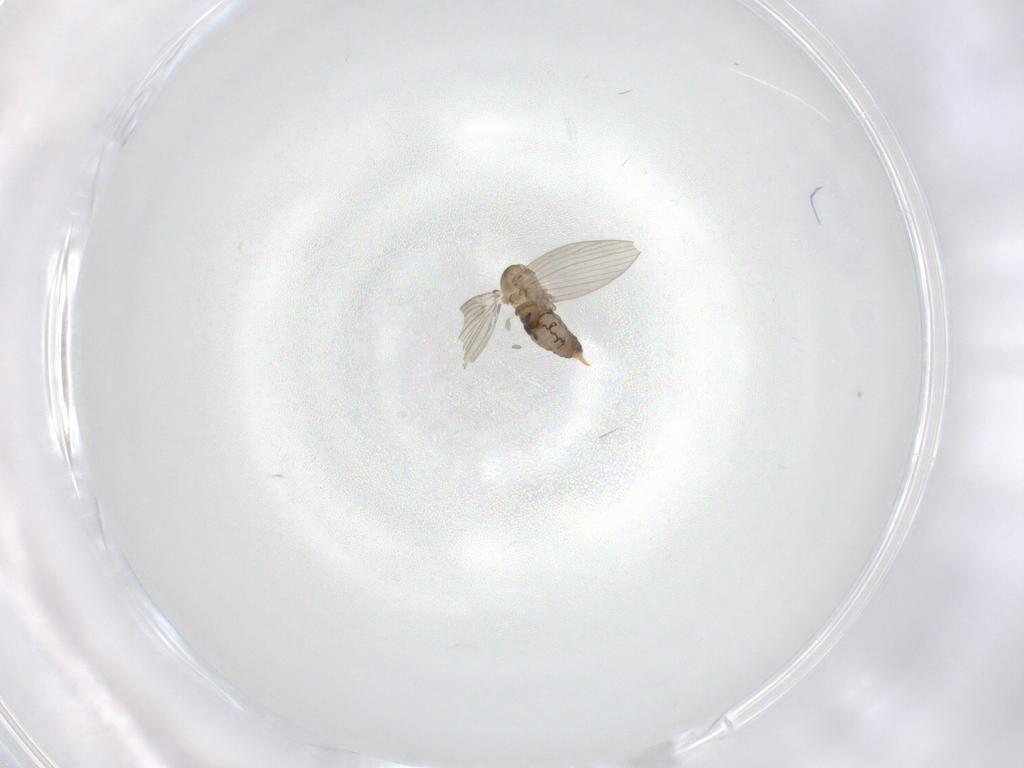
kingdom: Animalia
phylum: Arthropoda
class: Insecta
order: Diptera
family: Psychodidae
